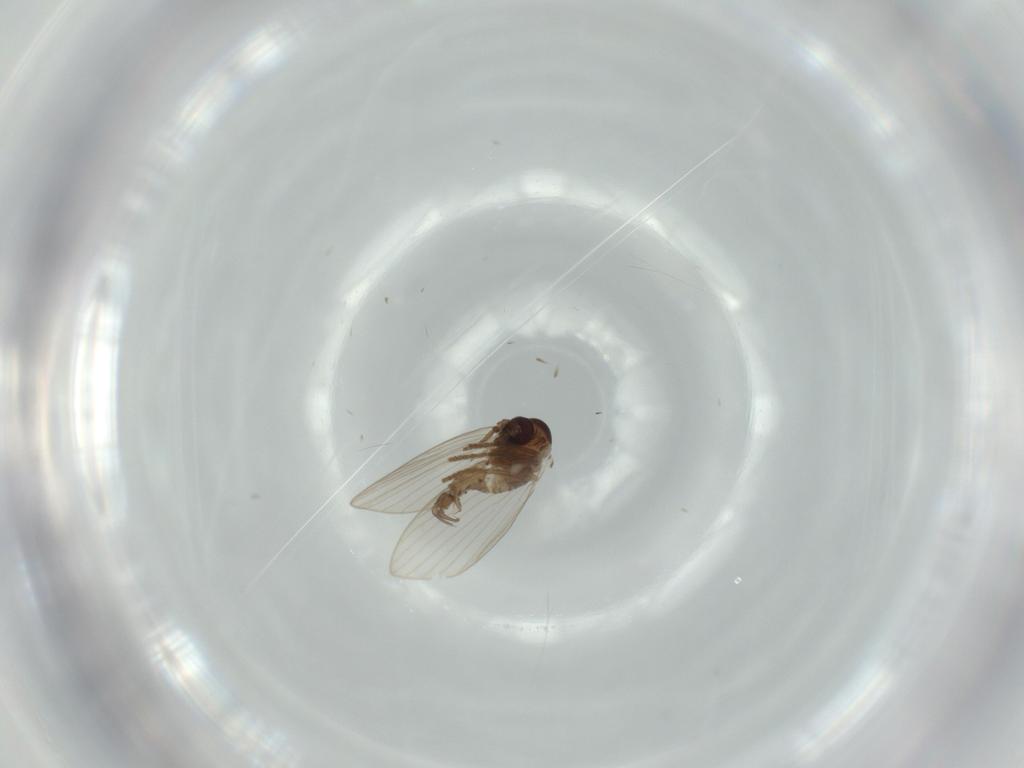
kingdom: Animalia
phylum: Arthropoda
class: Insecta
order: Diptera
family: Psychodidae
